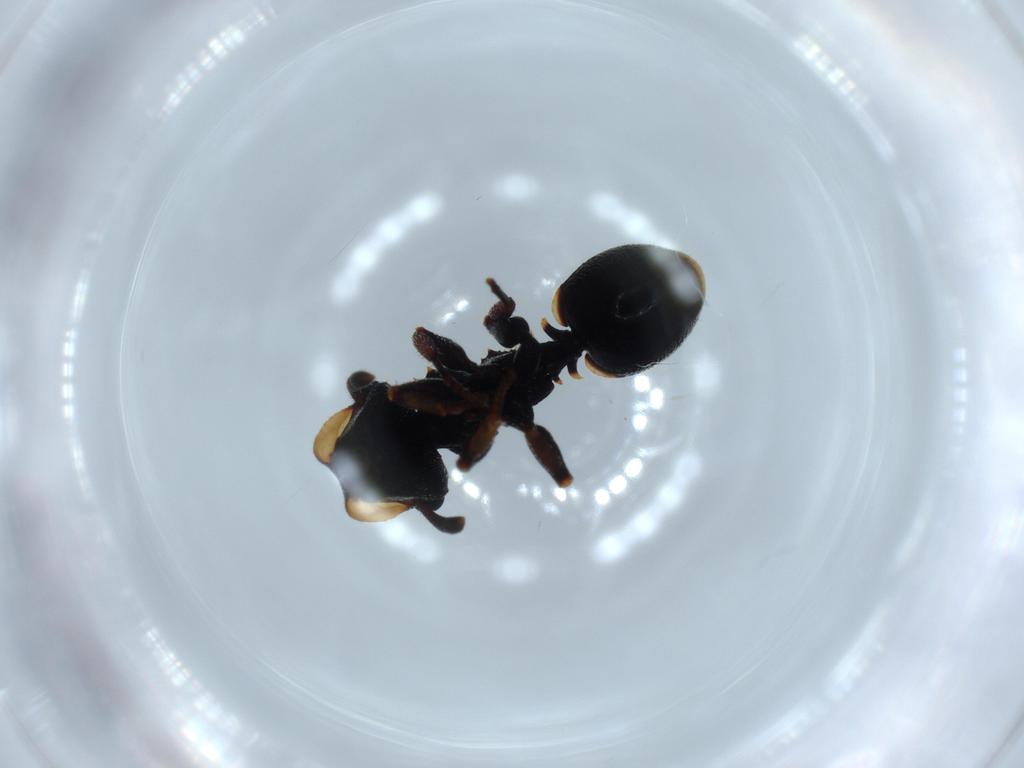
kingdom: Animalia
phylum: Arthropoda
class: Insecta
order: Hymenoptera
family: Formicidae
